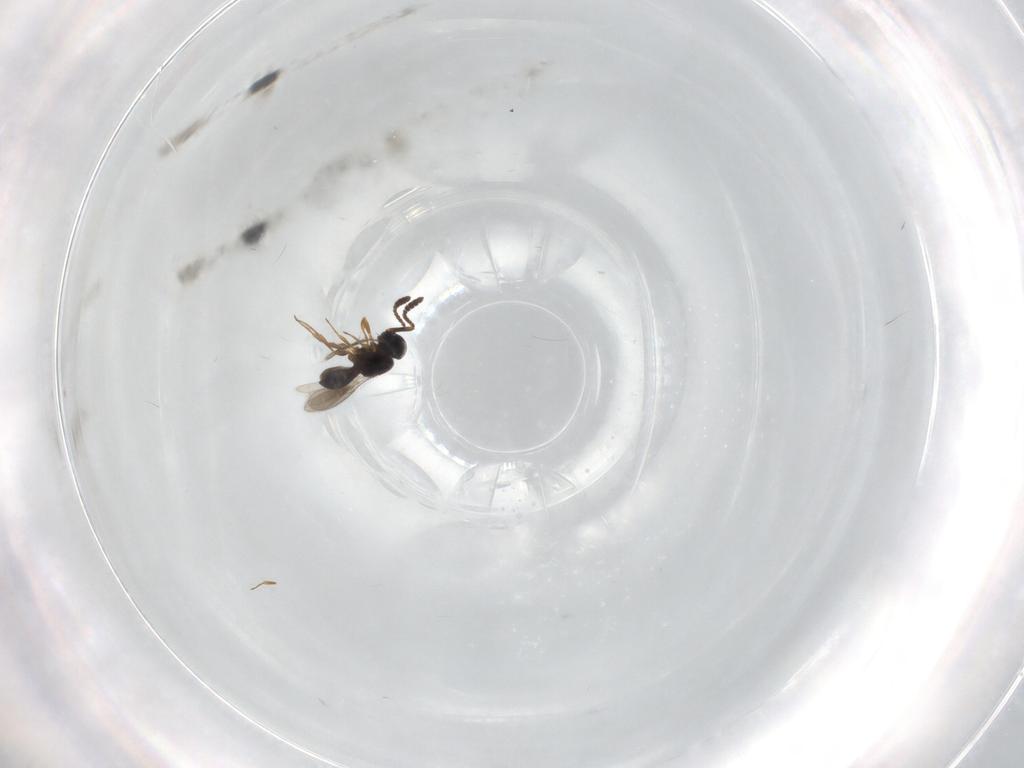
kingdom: Animalia
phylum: Arthropoda
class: Insecta
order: Hymenoptera
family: Scelionidae
